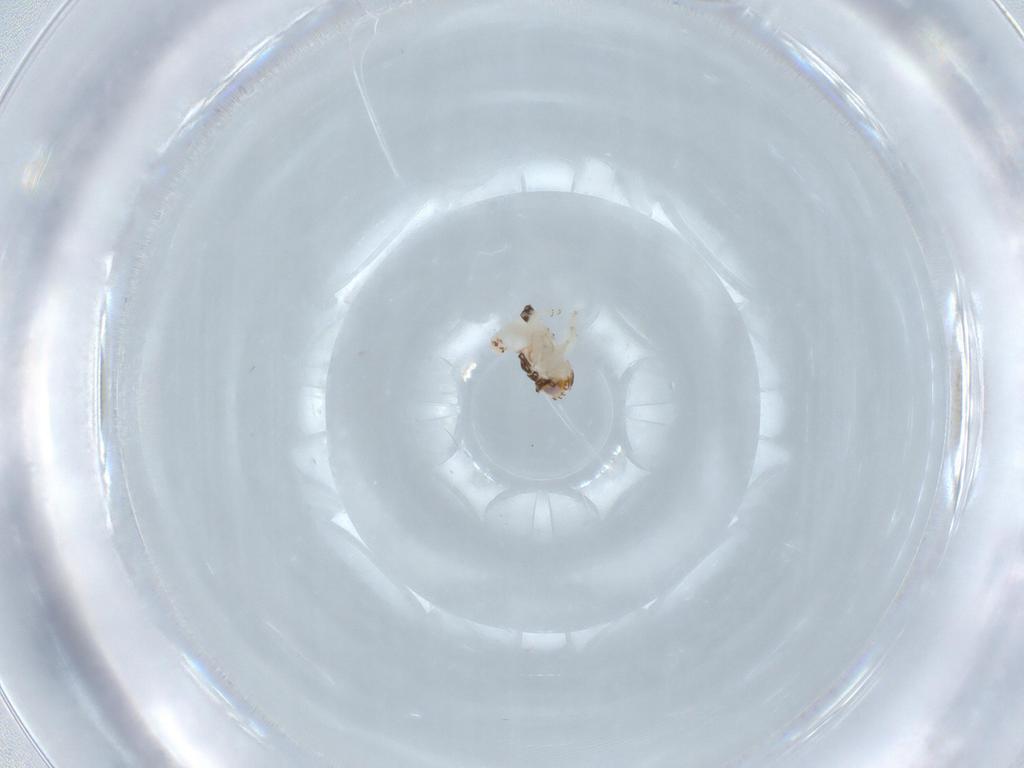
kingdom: Animalia
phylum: Arthropoda
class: Insecta
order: Hemiptera
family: Nogodinidae
